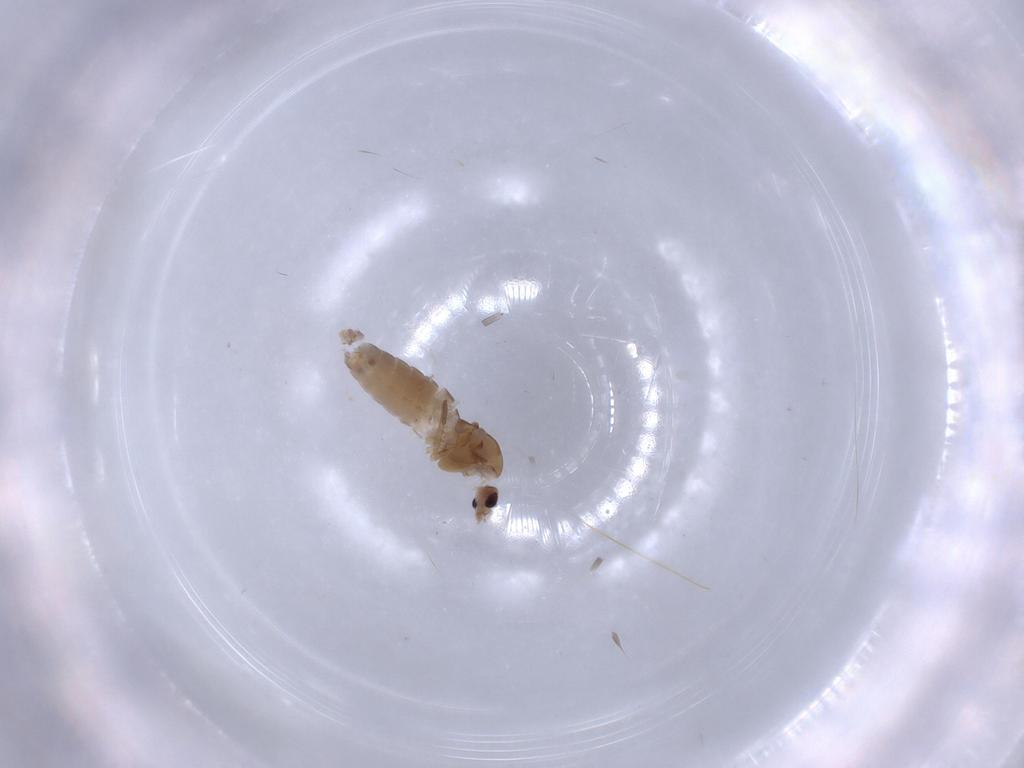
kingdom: Animalia
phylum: Arthropoda
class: Insecta
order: Diptera
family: Chironomidae
